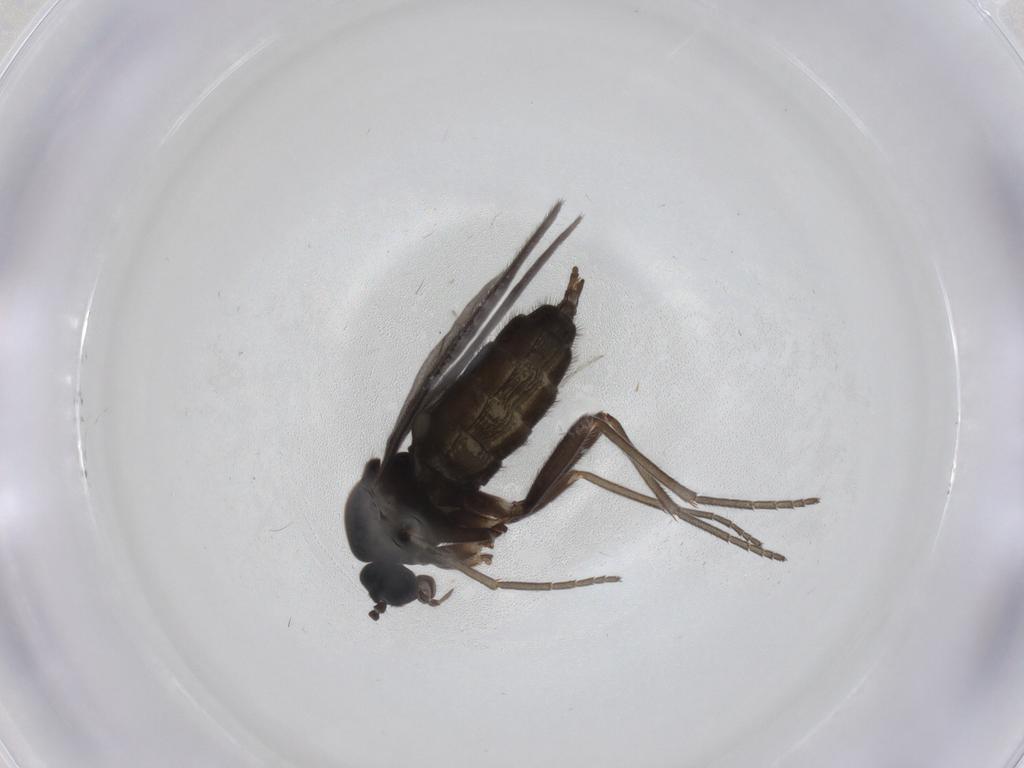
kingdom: Animalia
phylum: Arthropoda
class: Insecta
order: Diptera
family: Sciaridae
